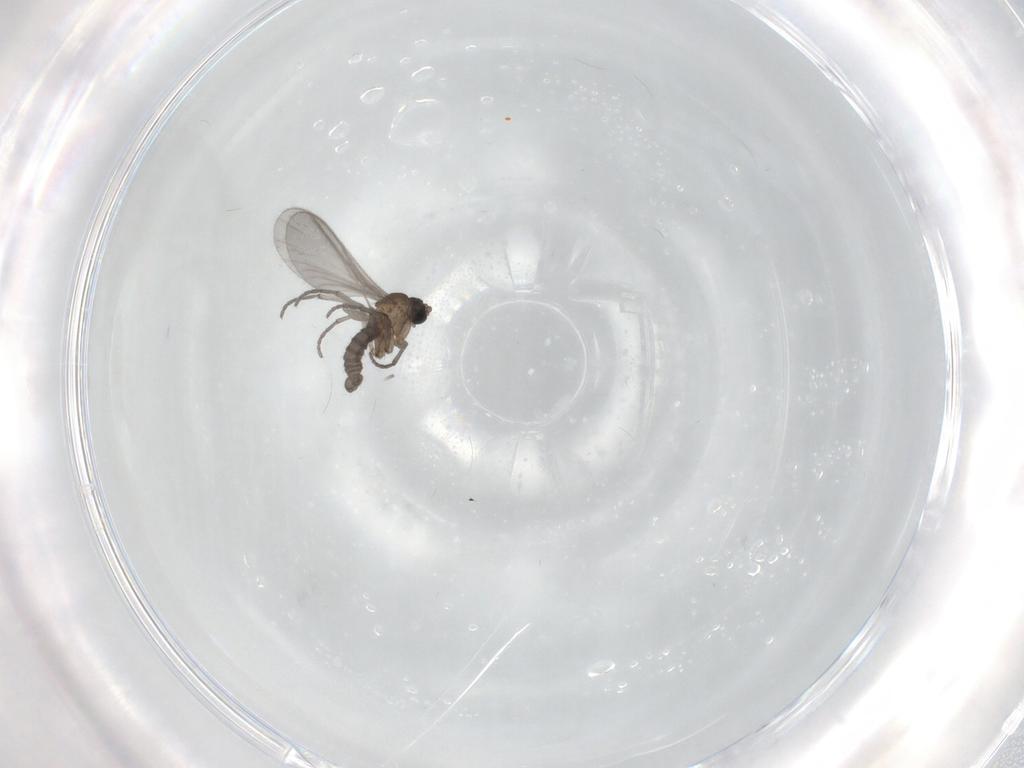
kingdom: Animalia
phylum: Arthropoda
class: Insecta
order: Diptera
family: Sciaridae
